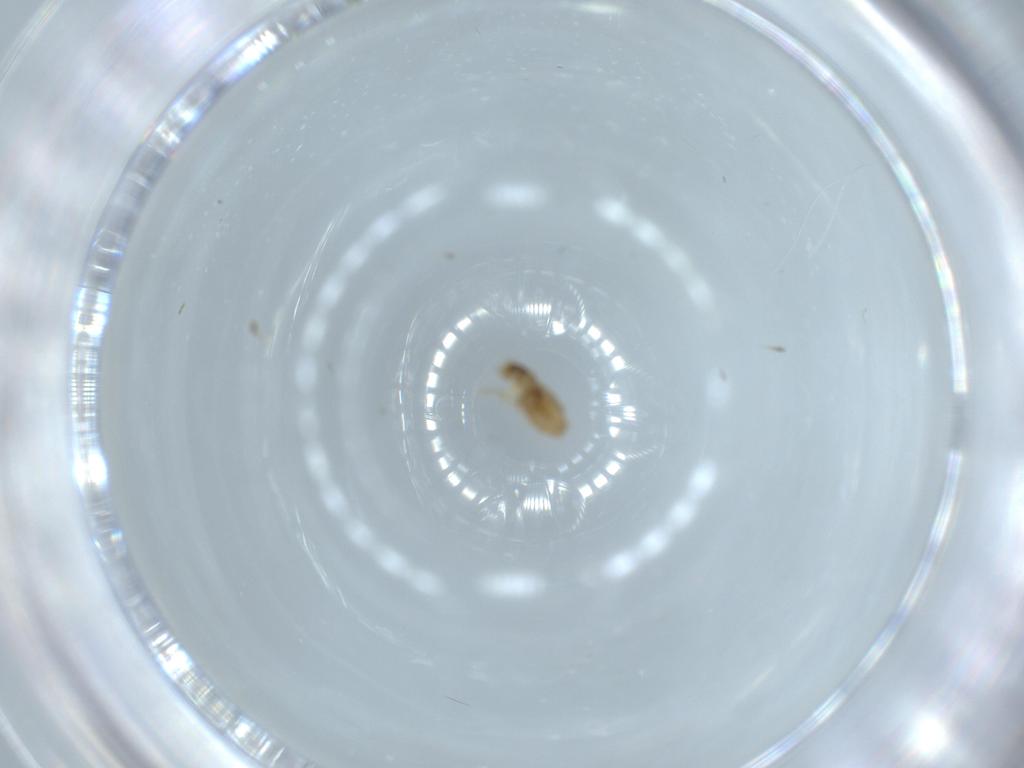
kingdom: Animalia
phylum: Arthropoda
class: Insecta
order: Diptera
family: Phoridae
